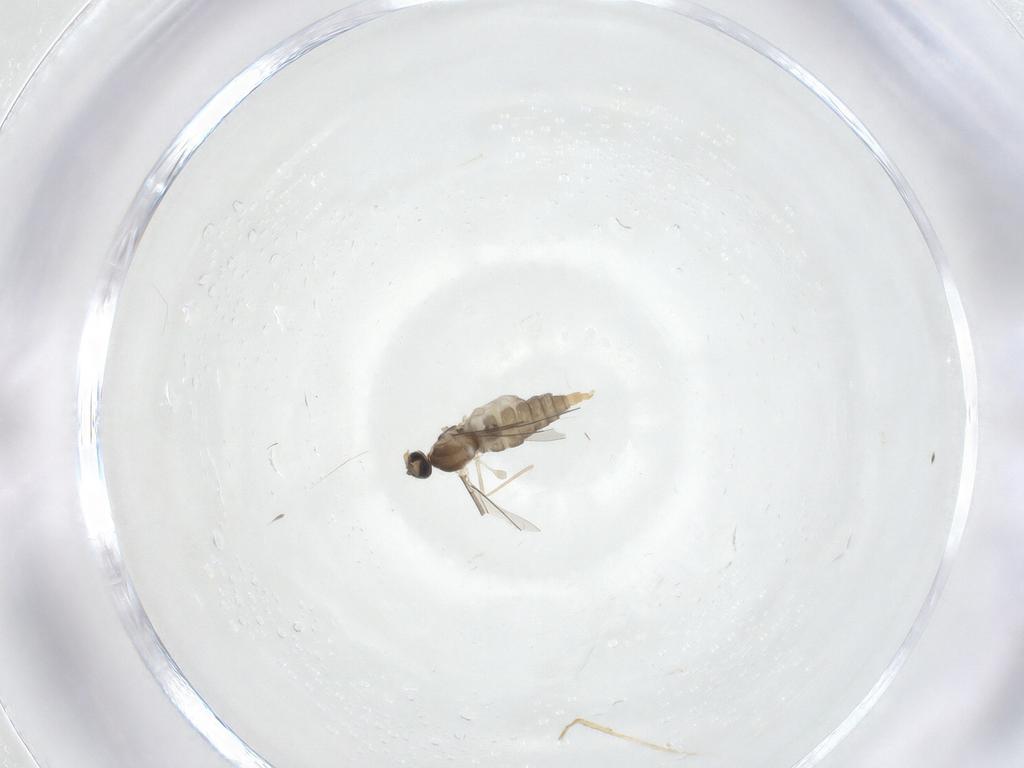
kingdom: Animalia
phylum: Arthropoda
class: Insecta
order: Diptera
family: Cecidomyiidae
